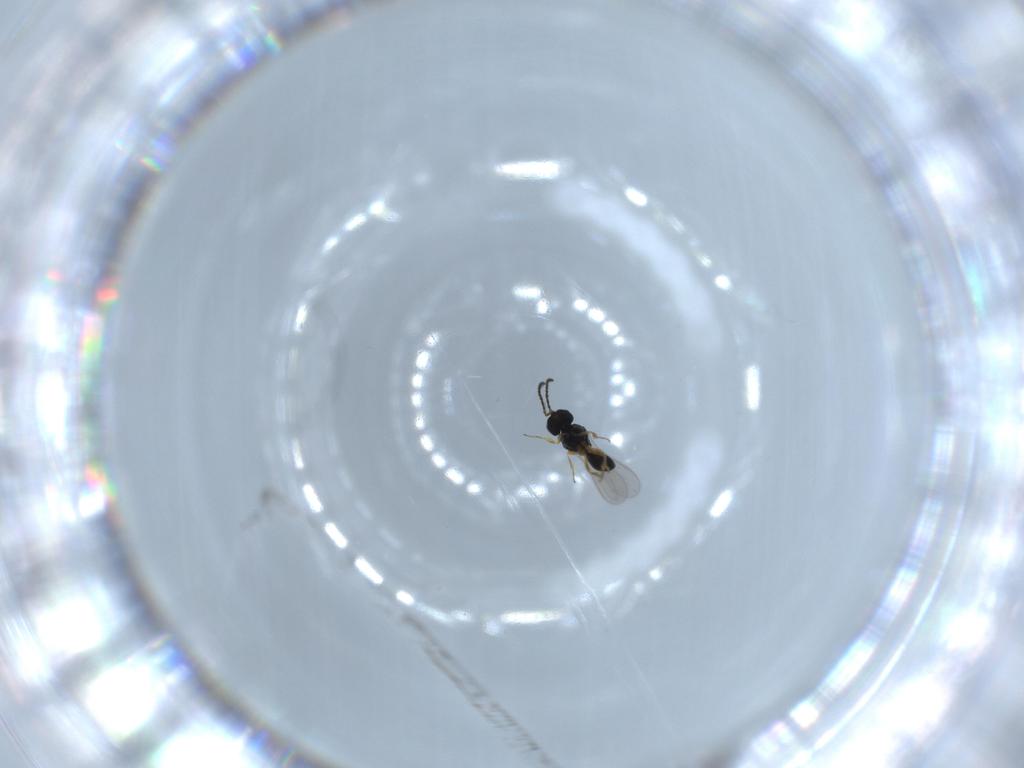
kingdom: Animalia
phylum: Arthropoda
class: Insecta
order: Hymenoptera
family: Scelionidae
